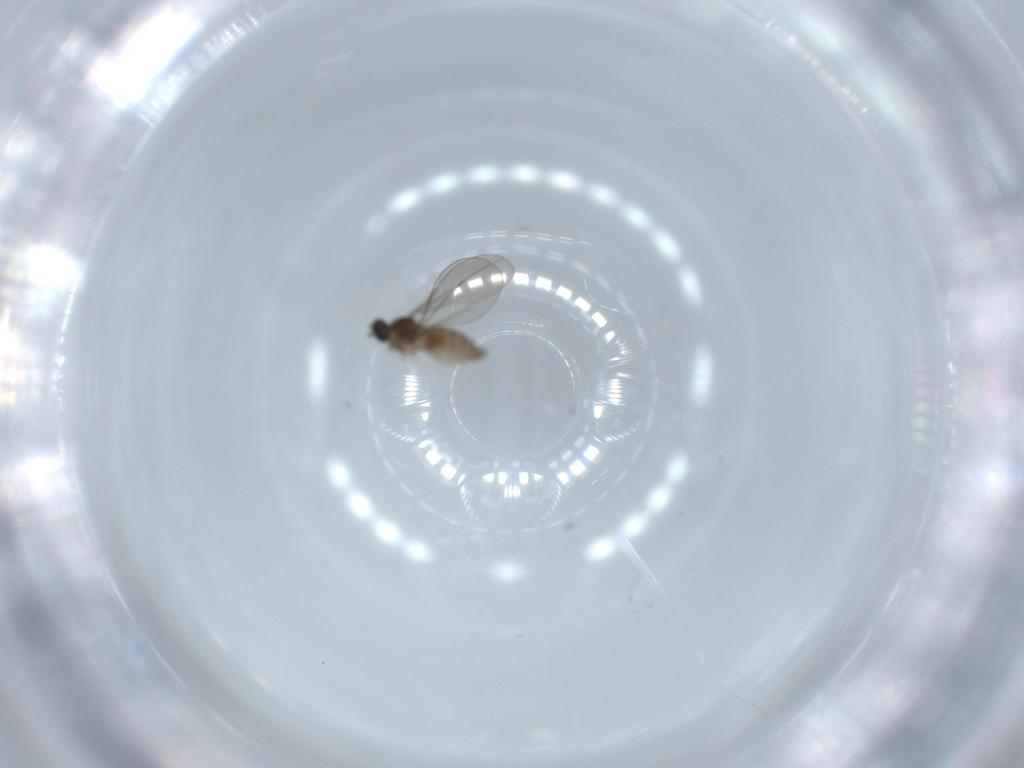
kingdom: Animalia
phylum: Arthropoda
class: Insecta
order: Diptera
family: Cecidomyiidae
